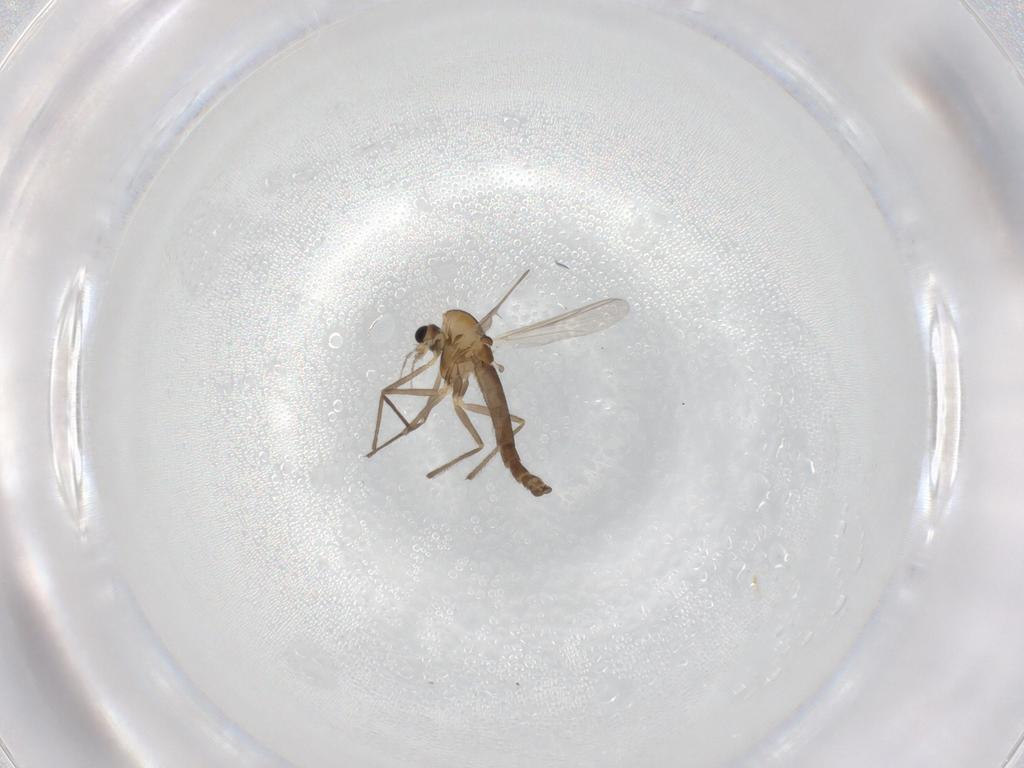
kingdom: Animalia
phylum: Arthropoda
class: Insecta
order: Diptera
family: Chironomidae
